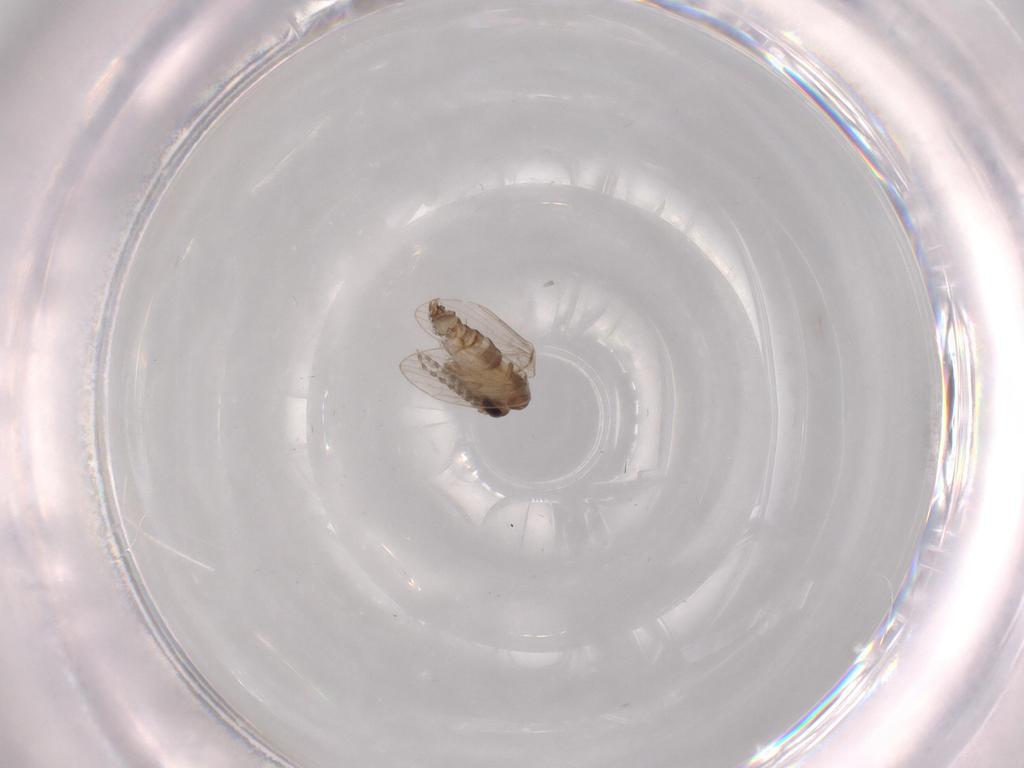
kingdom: Animalia
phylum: Arthropoda
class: Insecta
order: Diptera
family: Psychodidae
